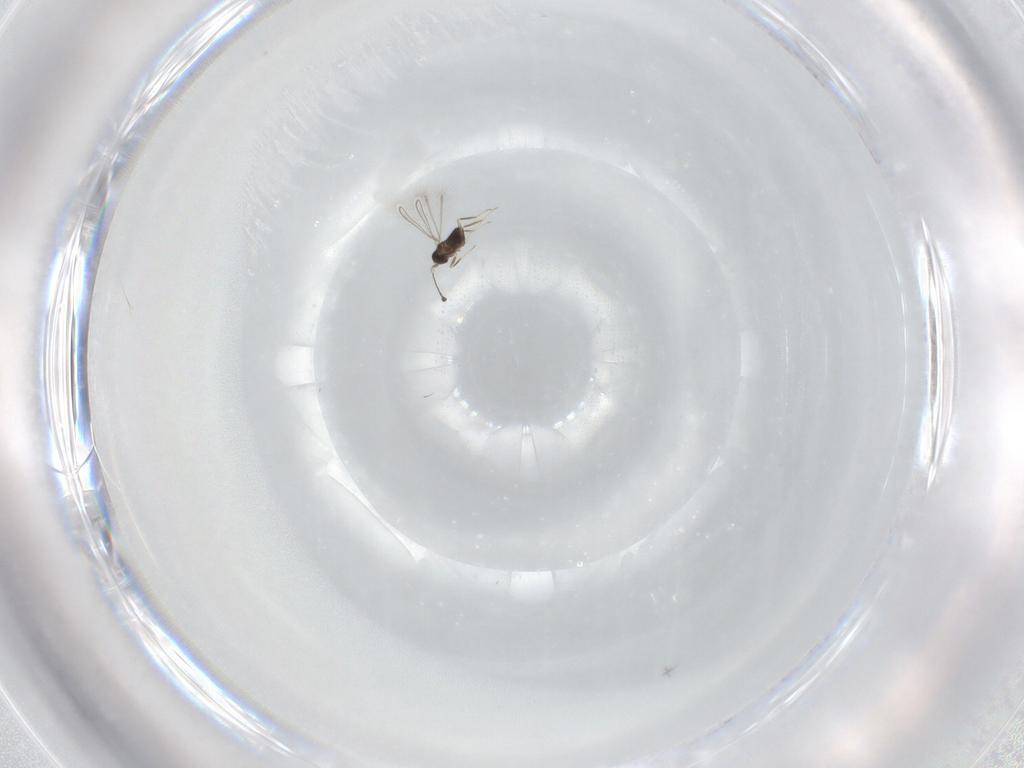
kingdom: Animalia
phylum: Arthropoda
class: Insecta
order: Hymenoptera
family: Mymaridae
